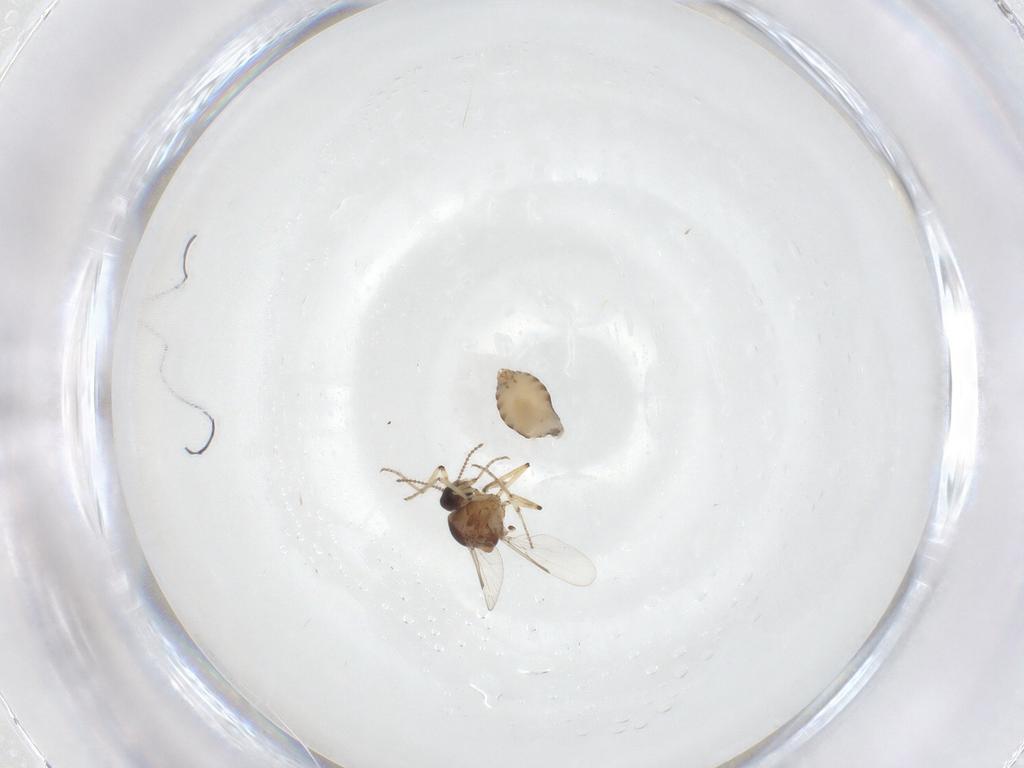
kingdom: Animalia
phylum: Arthropoda
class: Insecta
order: Diptera
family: Ceratopogonidae
